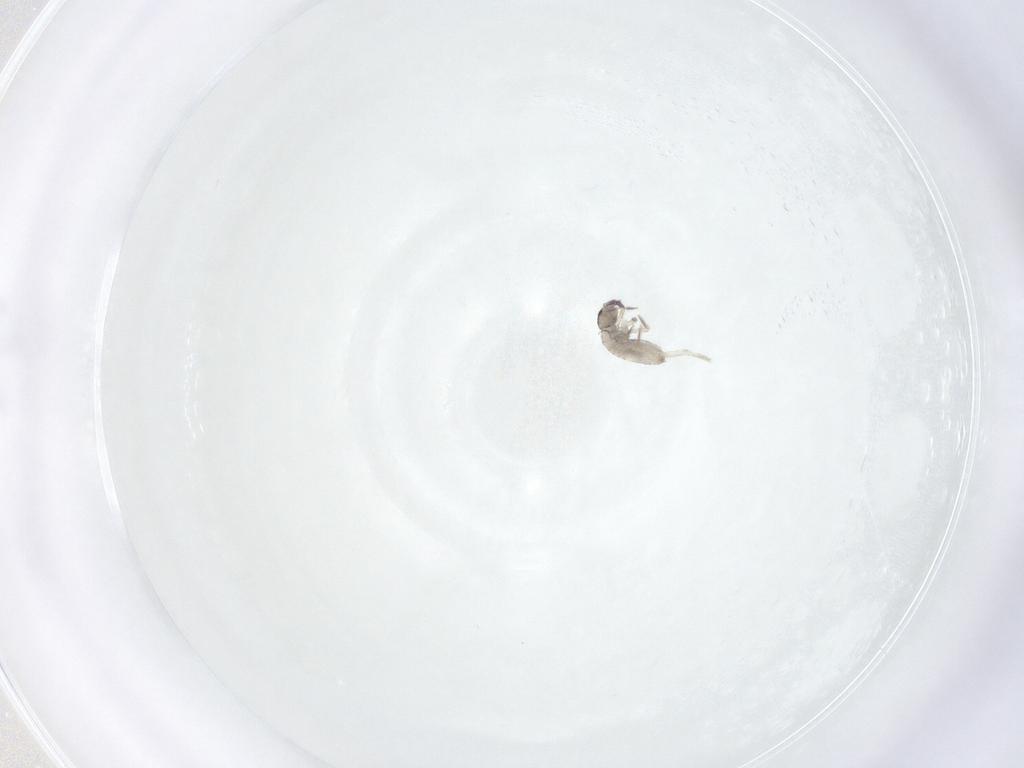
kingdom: Animalia
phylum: Arthropoda
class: Collembola
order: Entomobryomorpha
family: Entomobryidae
